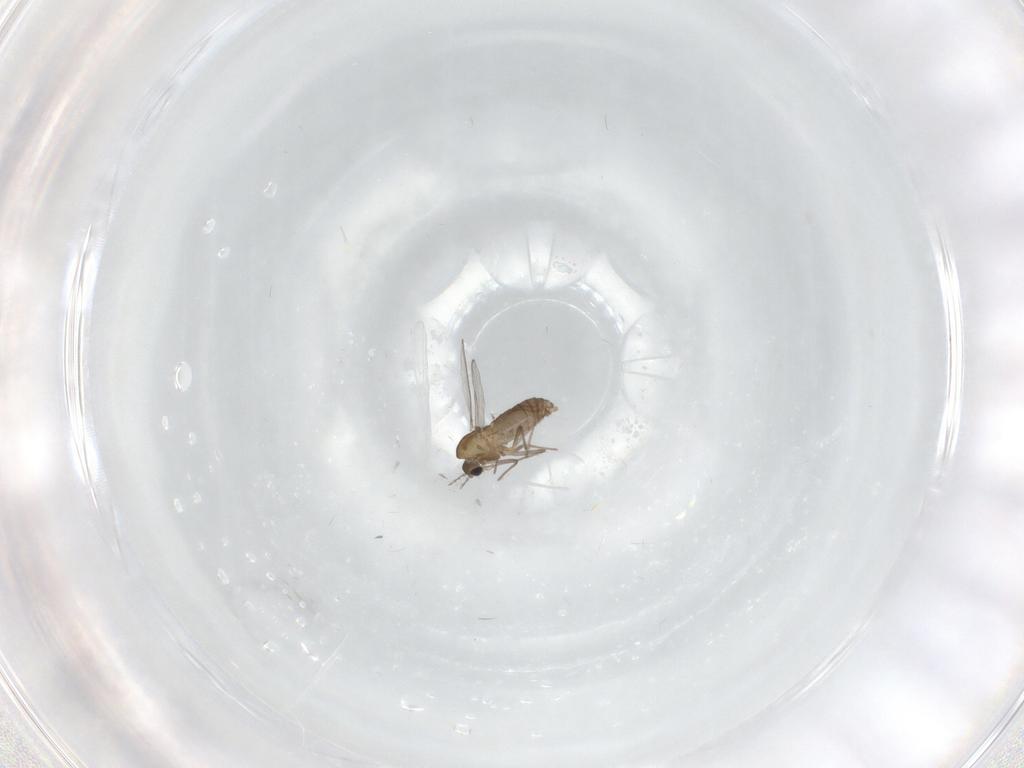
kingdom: Animalia
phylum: Arthropoda
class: Insecta
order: Diptera
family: Chironomidae
